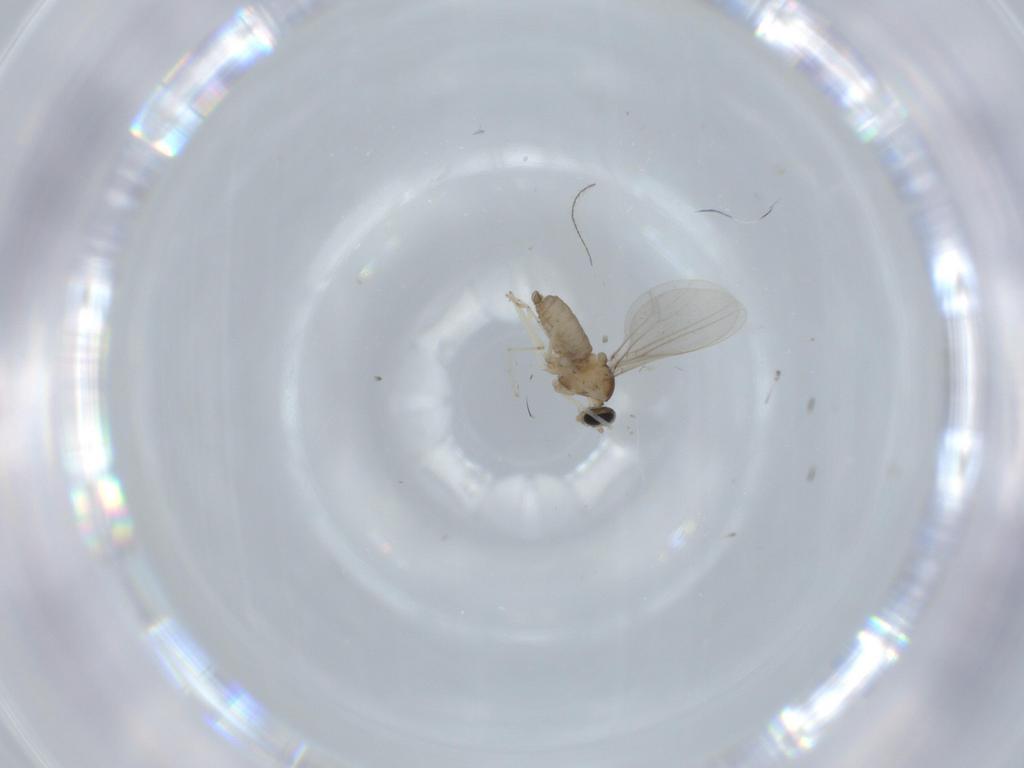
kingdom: Animalia
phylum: Arthropoda
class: Insecta
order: Diptera
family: Cecidomyiidae
